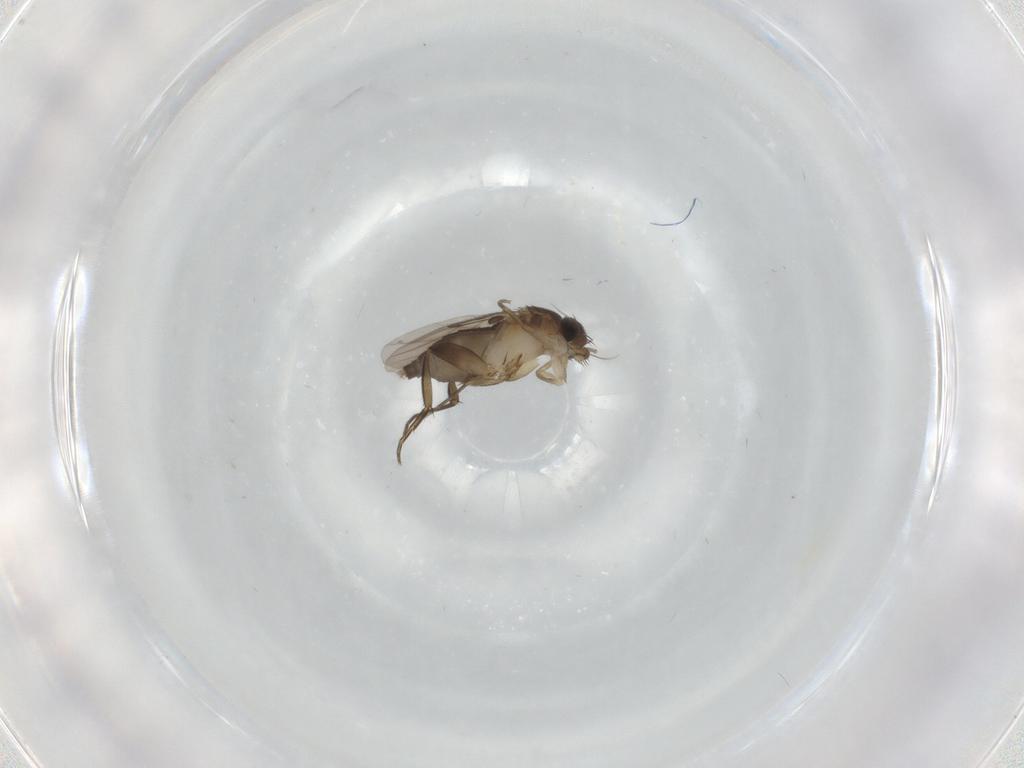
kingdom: Animalia
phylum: Arthropoda
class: Insecta
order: Diptera
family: Phoridae
